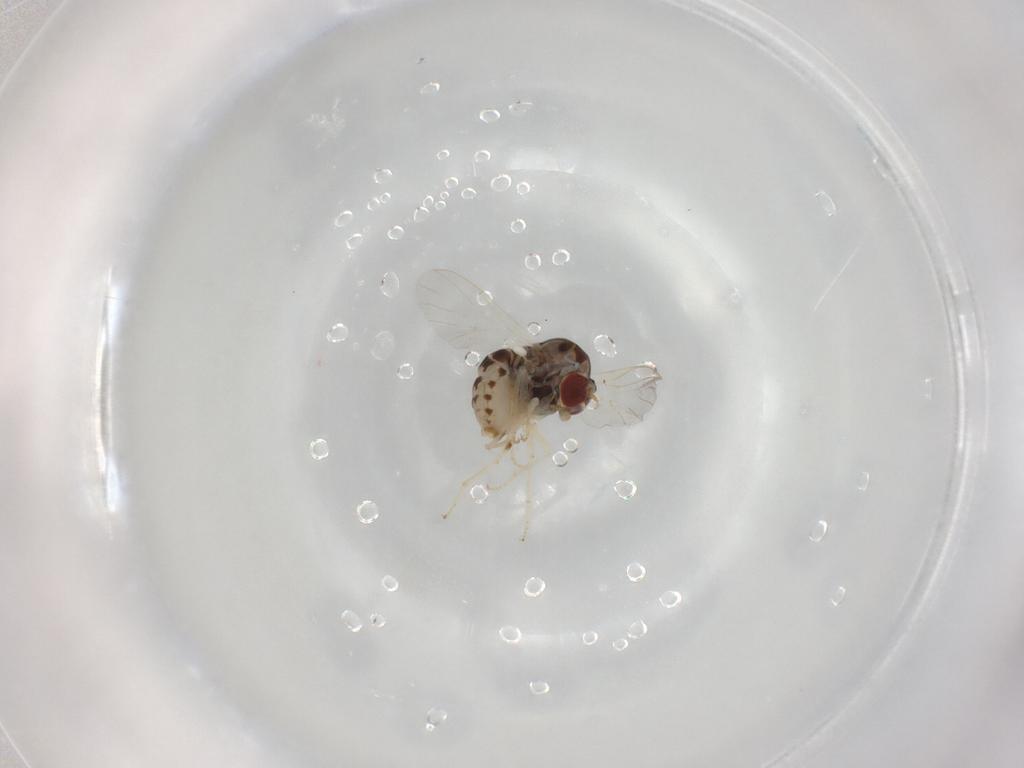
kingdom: Animalia
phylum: Arthropoda
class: Insecta
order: Diptera
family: Bombyliidae
